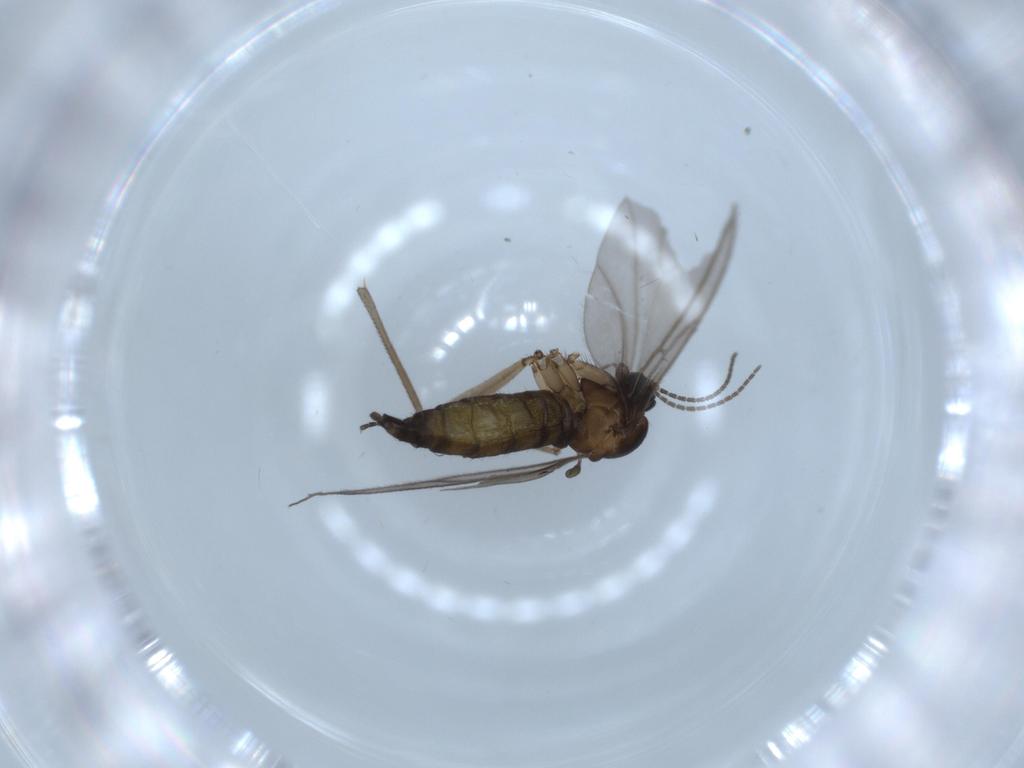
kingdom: Animalia
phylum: Arthropoda
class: Insecta
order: Diptera
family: Sciaridae
